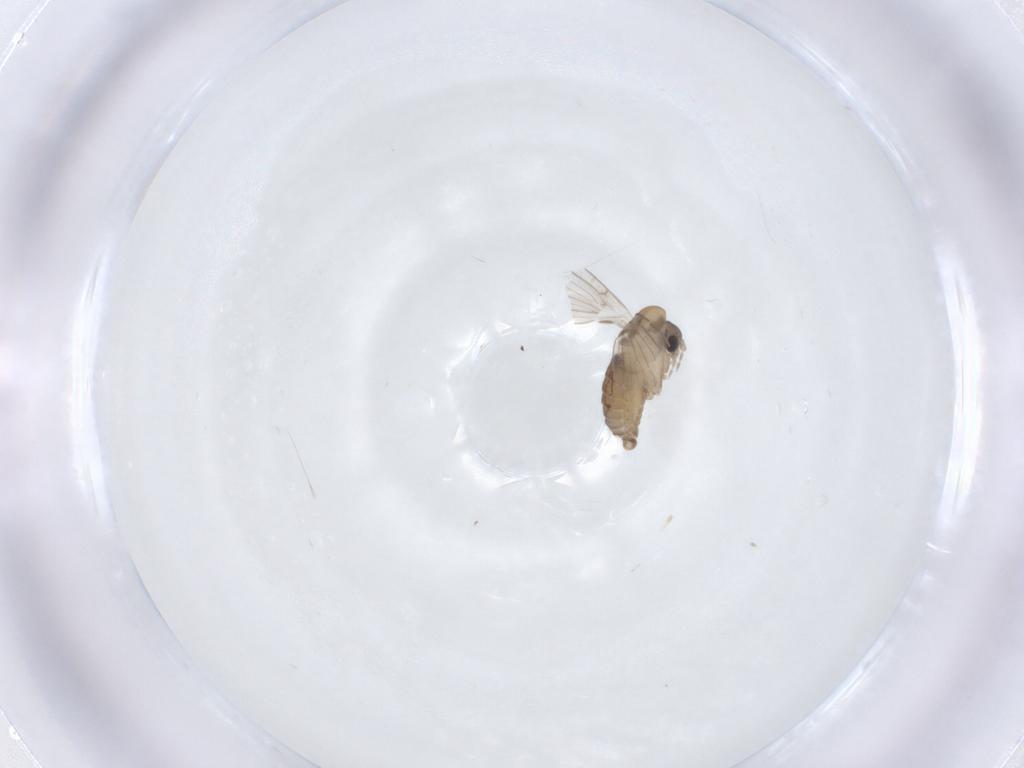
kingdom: Animalia
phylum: Arthropoda
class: Insecta
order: Diptera
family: Psychodidae
